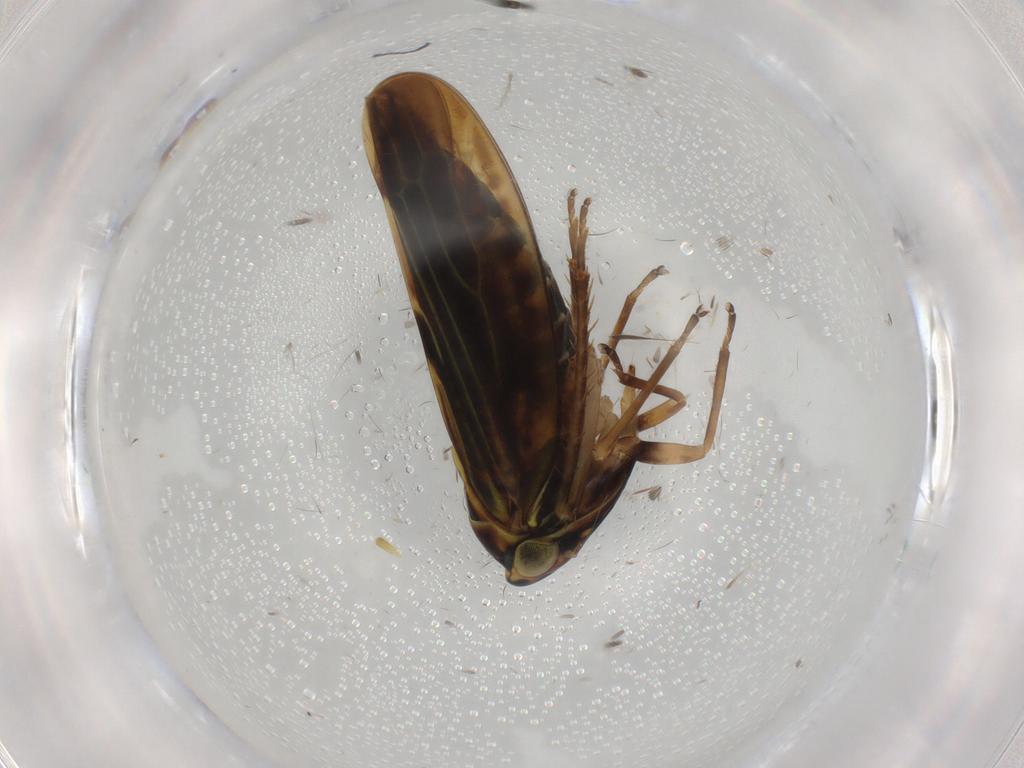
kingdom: Animalia
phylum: Arthropoda
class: Insecta
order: Hemiptera
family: Cicadellidae
